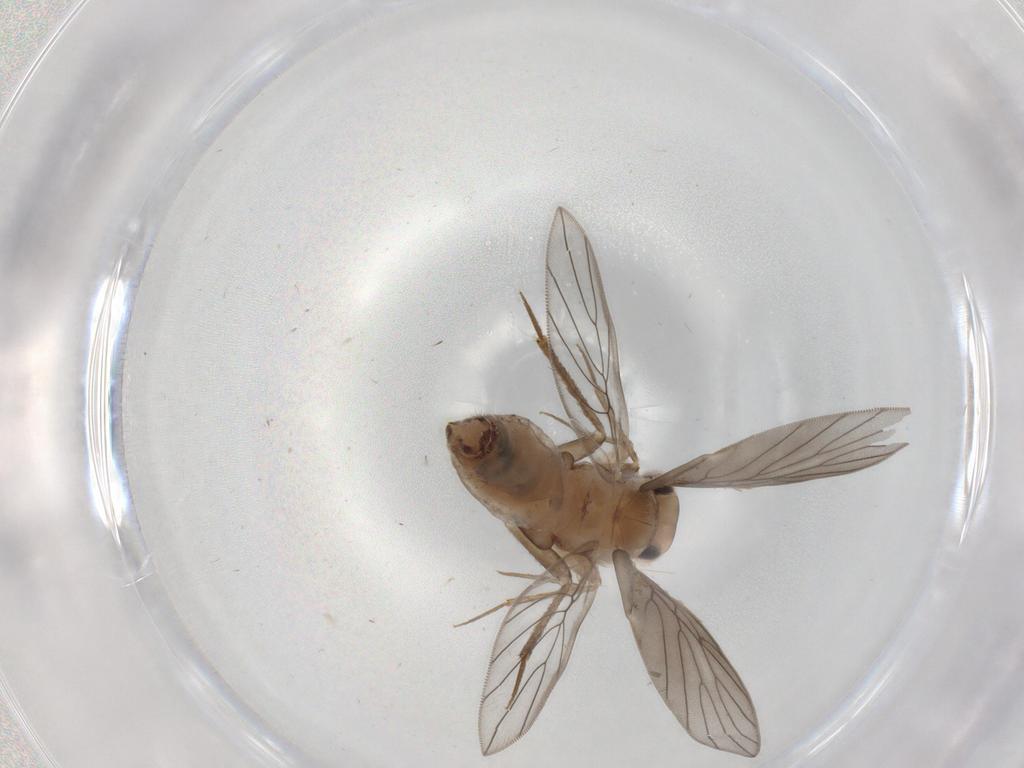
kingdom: Animalia
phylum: Arthropoda
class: Insecta
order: Psocodea
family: Lepidopsocidae
